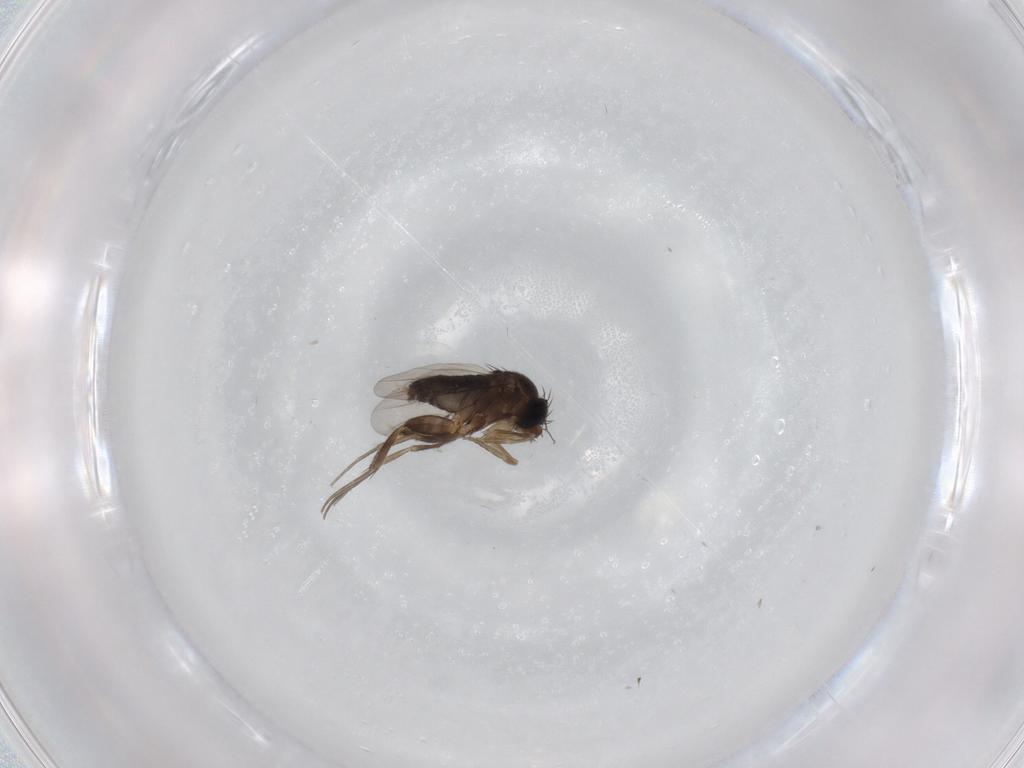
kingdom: Animalia
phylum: Arthropoda
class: Insecta
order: Diptera
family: Phoridae
